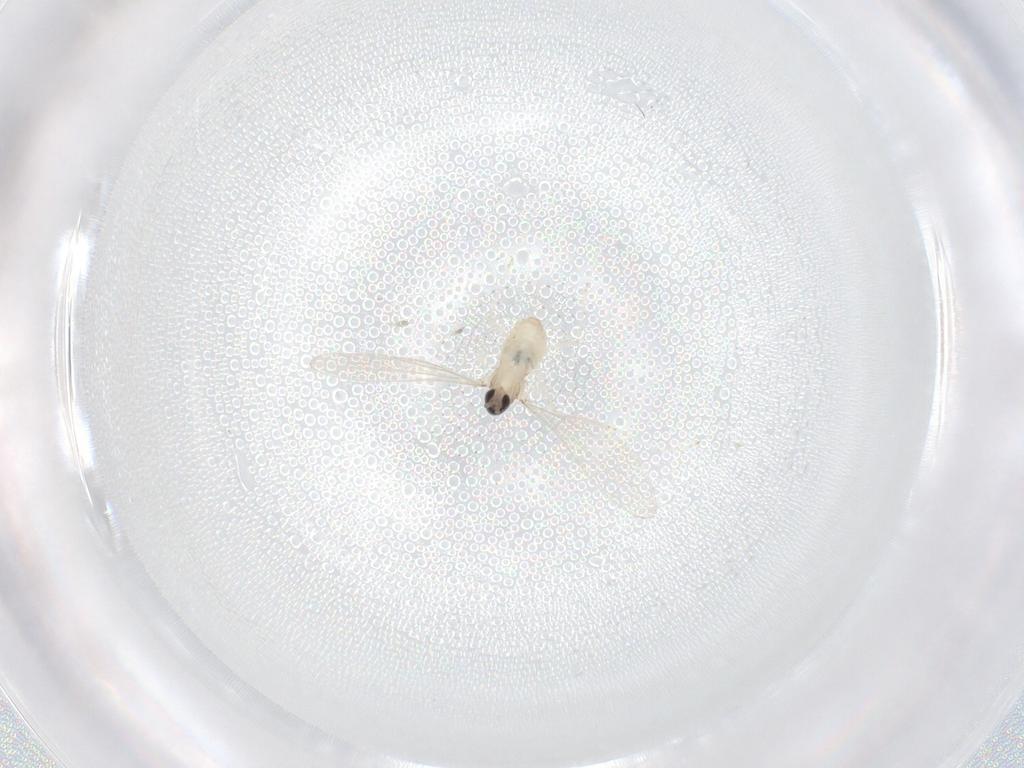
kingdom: Animalia
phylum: Arthropoda
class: Insecta
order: Diptera
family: Cecidomyiidae
